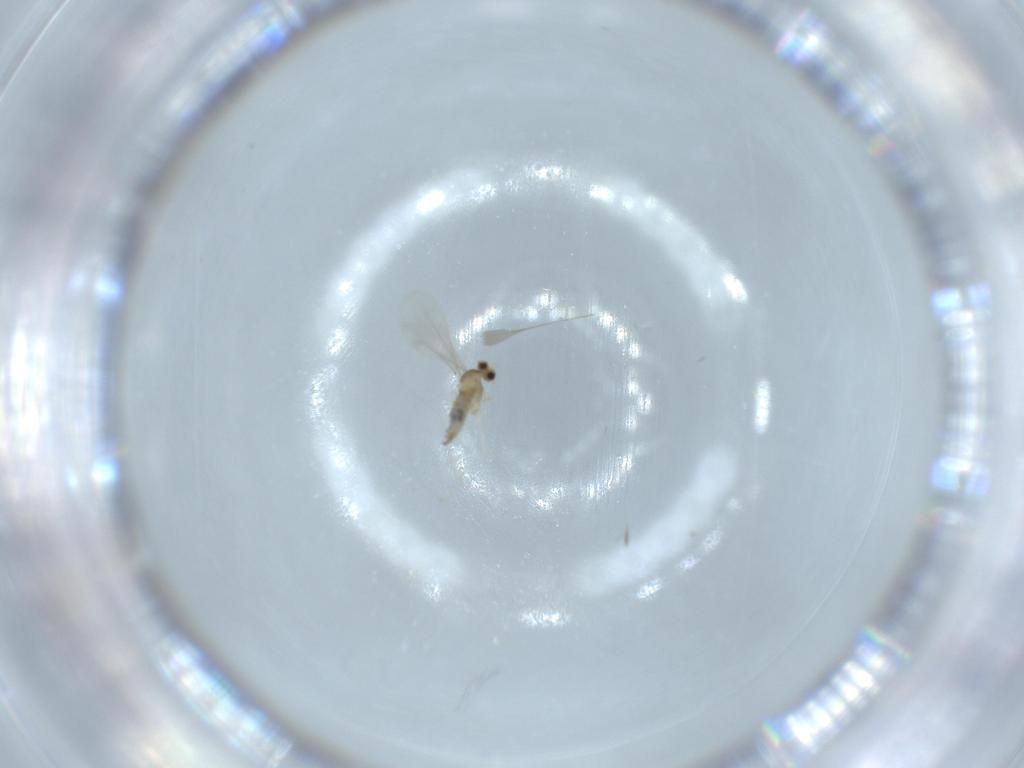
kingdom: Animalia
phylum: Arthropoda
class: Insecta
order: Diptera
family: Cecidomyiidae
